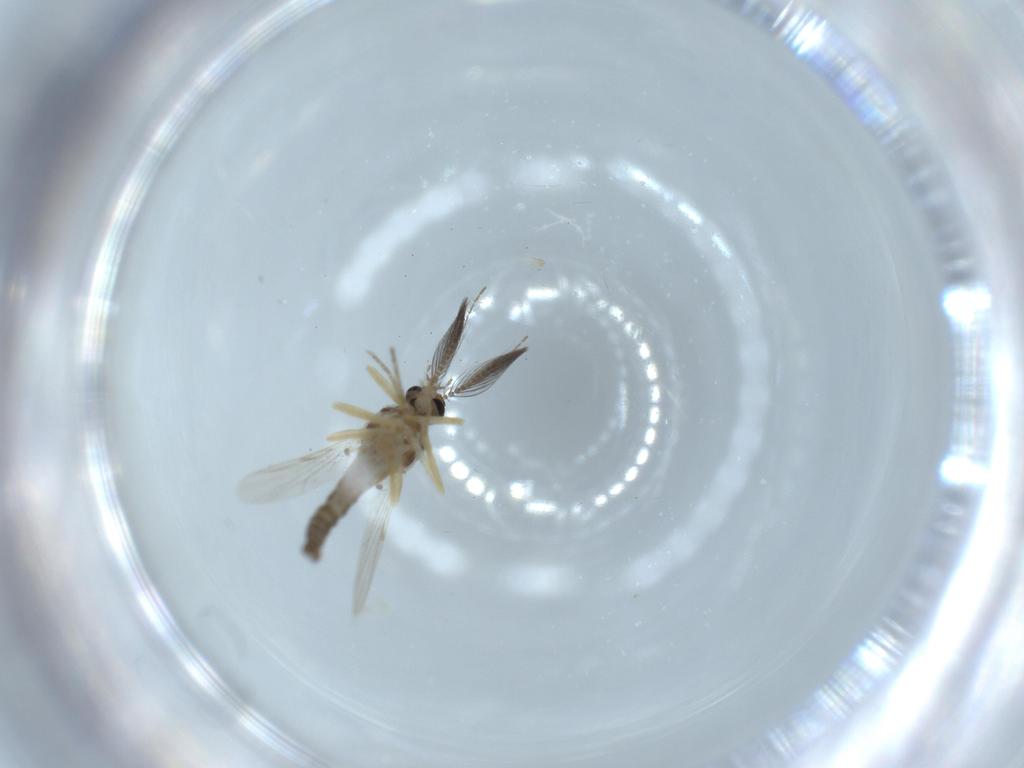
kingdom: Animalia
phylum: Arthropoda
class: Insecta
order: Diptera
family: Ceratopogonidae
